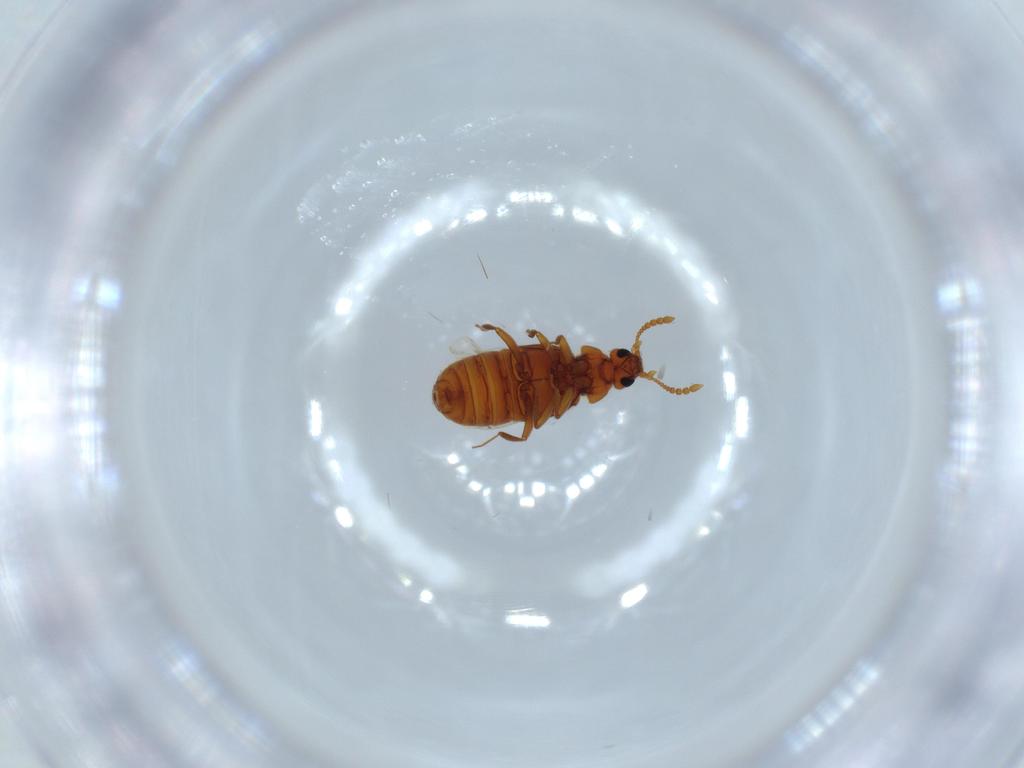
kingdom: Animalia
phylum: Arthropoda
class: Insecta
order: Coleoptera
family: Staphylinidae
